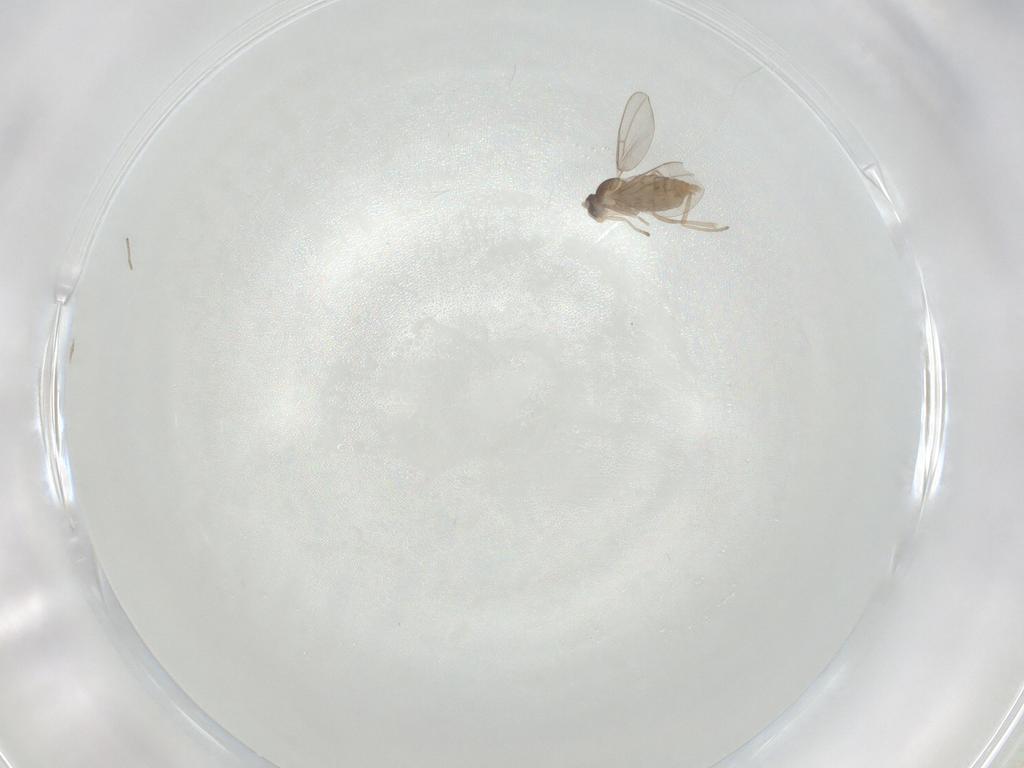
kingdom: Animalia
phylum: Arthropoda
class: Insecta
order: Diptera
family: Cecidomyiidae
